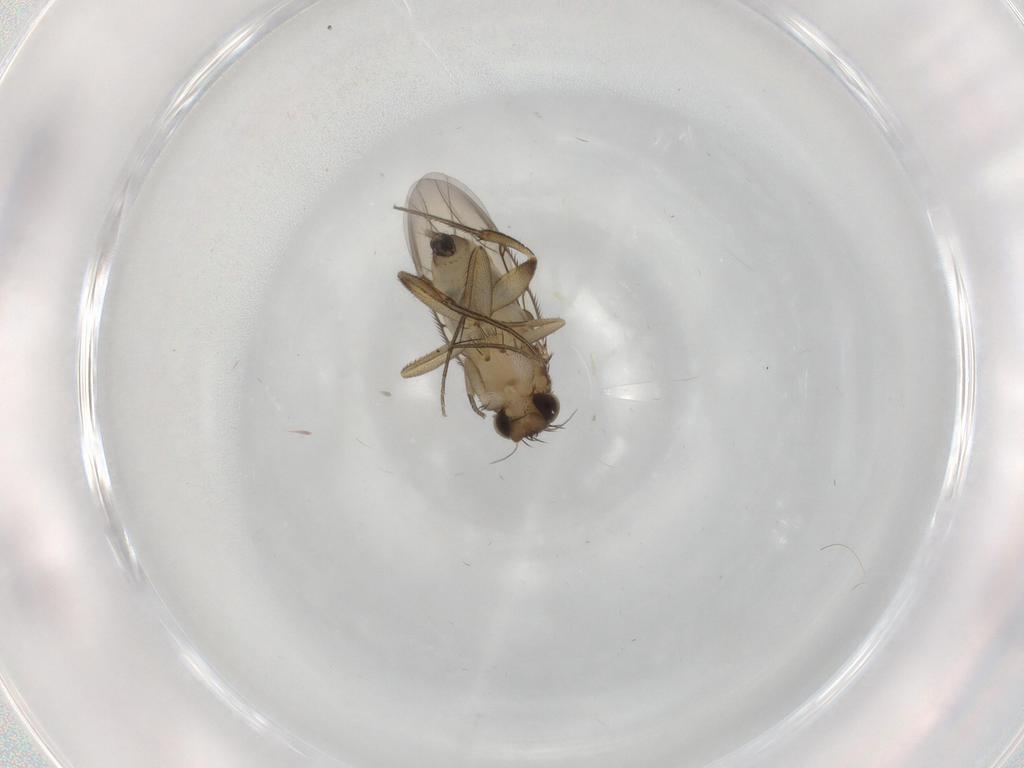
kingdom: Animalia
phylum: Arthropoda
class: Insecta
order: Diptera
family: Phoridae
